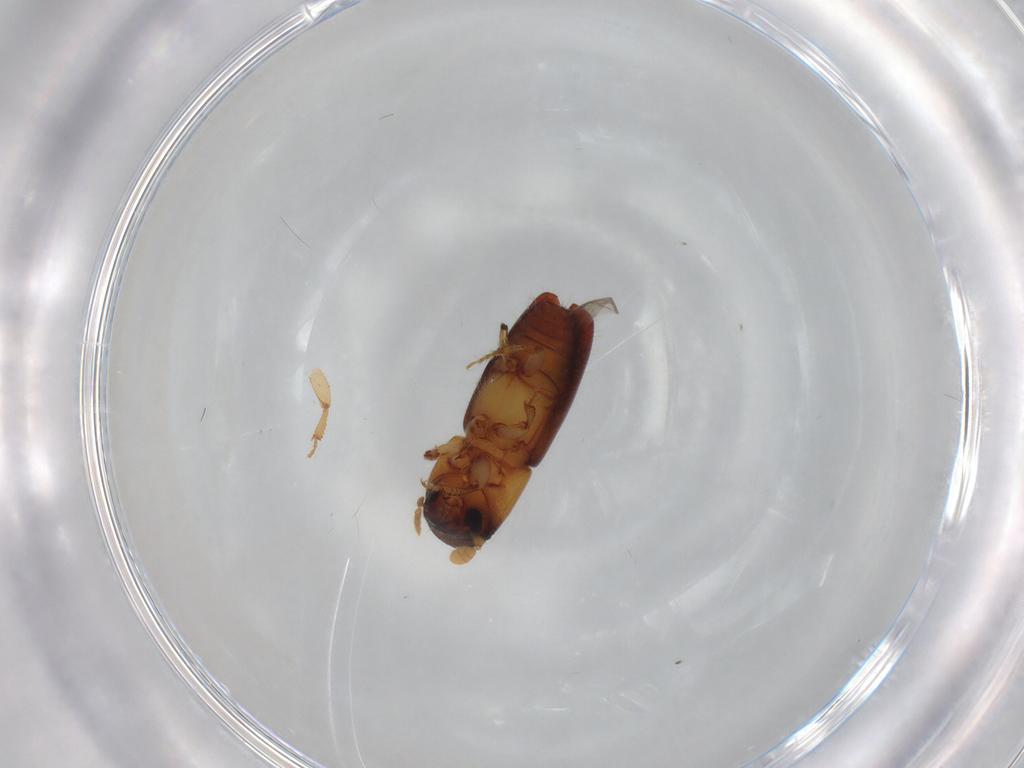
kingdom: Animalia
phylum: Arthropoda
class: Insecta
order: Coleoptera
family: Curculionidae
